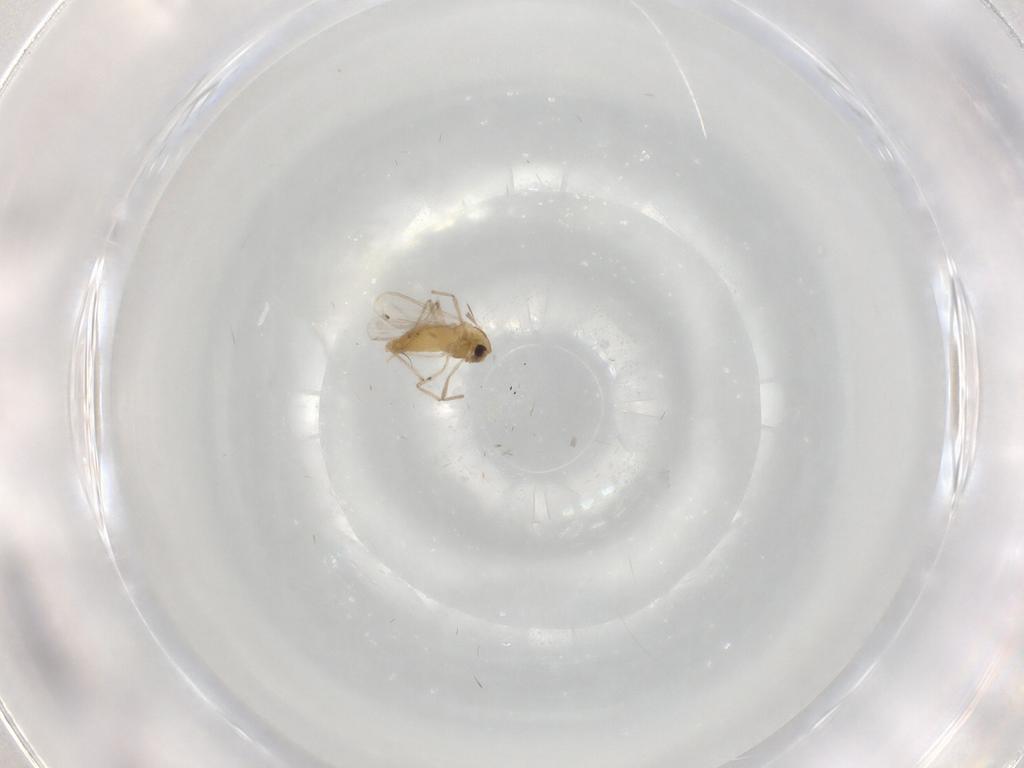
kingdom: Animalia
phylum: Arthropoda
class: Insecta
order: Diptera
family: Chironomidae
